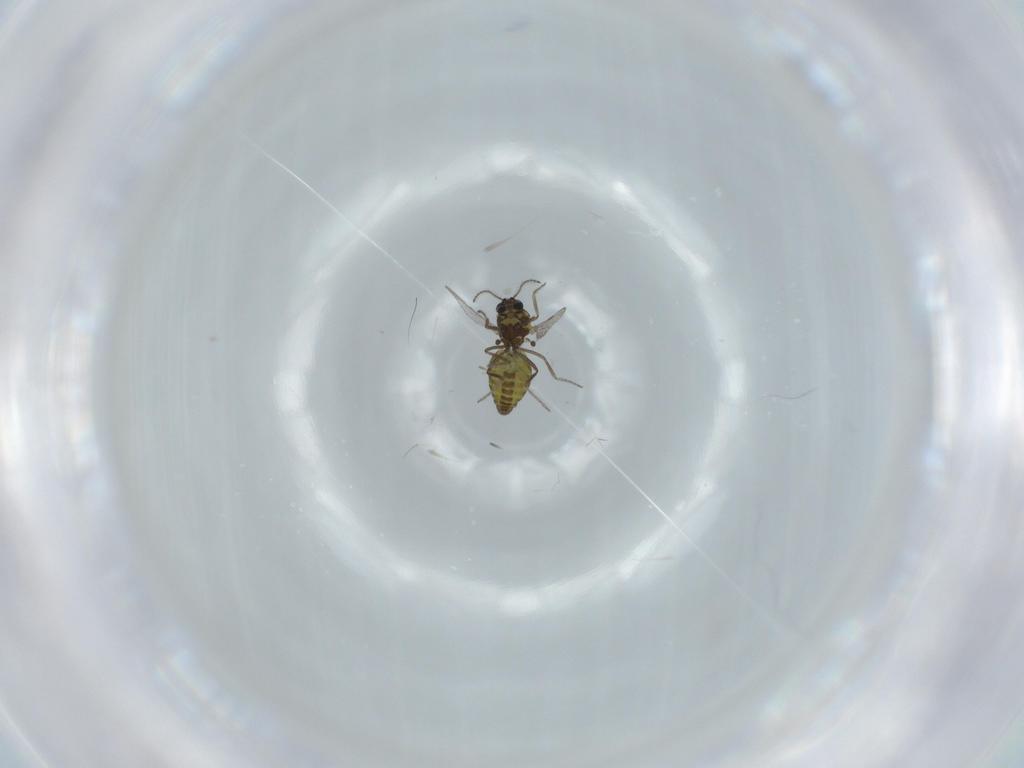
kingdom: Animalia
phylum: Arthropoda
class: Insecta
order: Diptera
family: Ceratopogonidae
